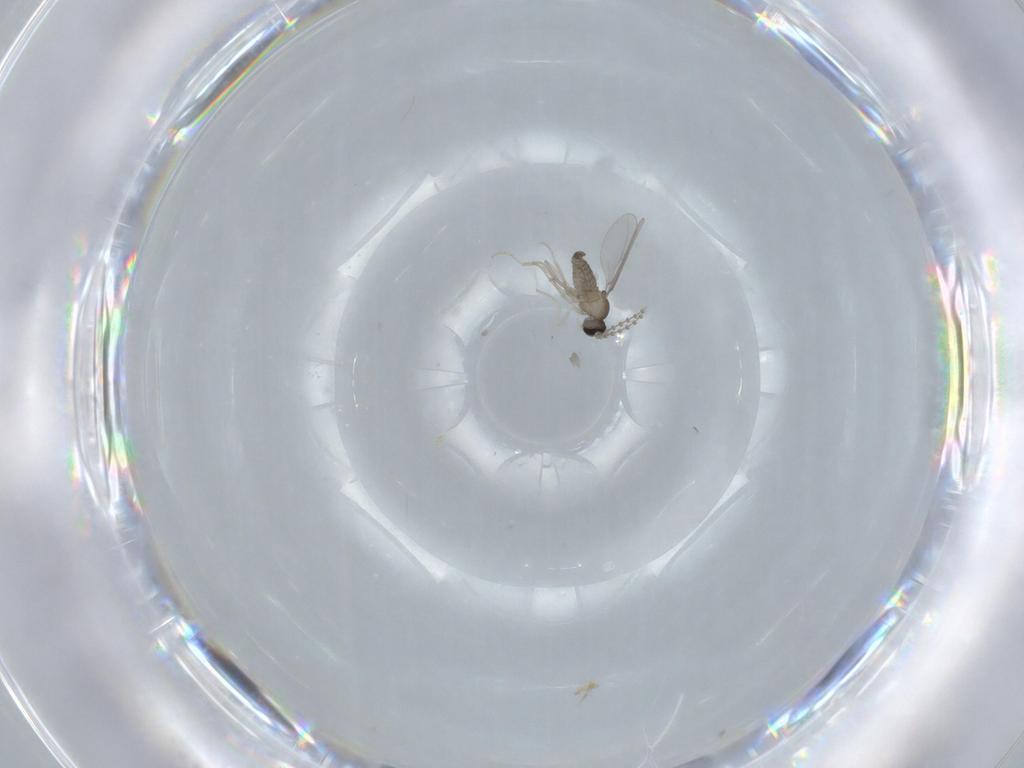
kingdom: Animalia
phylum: Arthropoda
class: Insecta
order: Diptera
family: Cecidomyiidae
